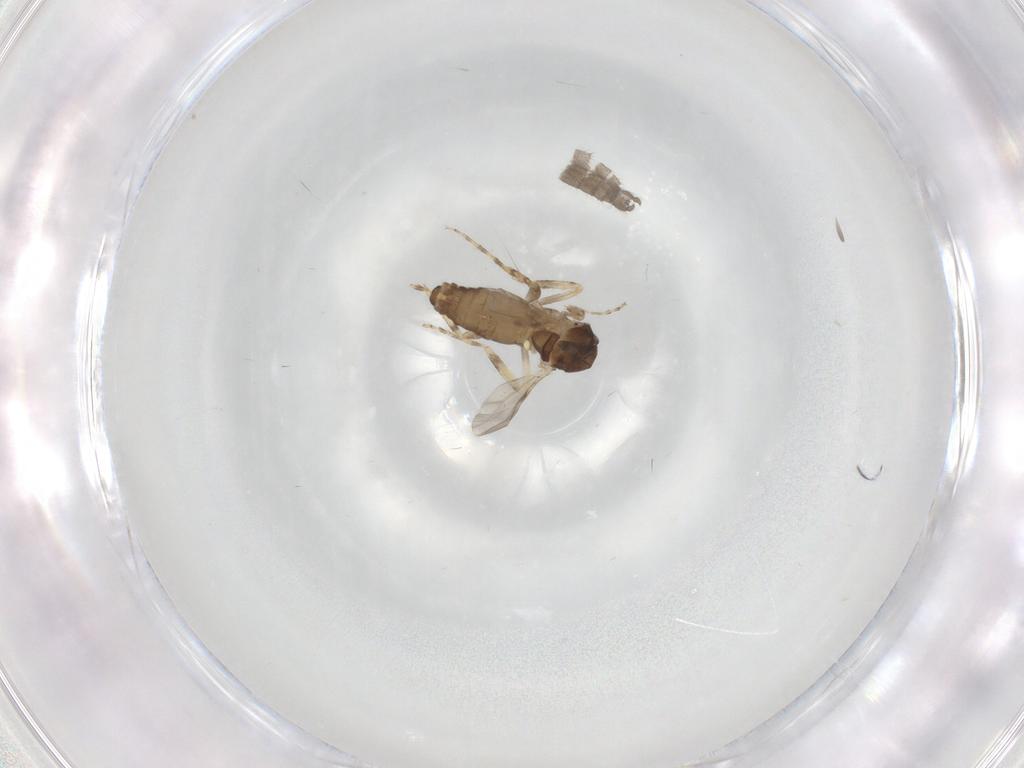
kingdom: Animalia
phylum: Arthropoda
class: Insecta
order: Diptera
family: Ceratopogonidae
